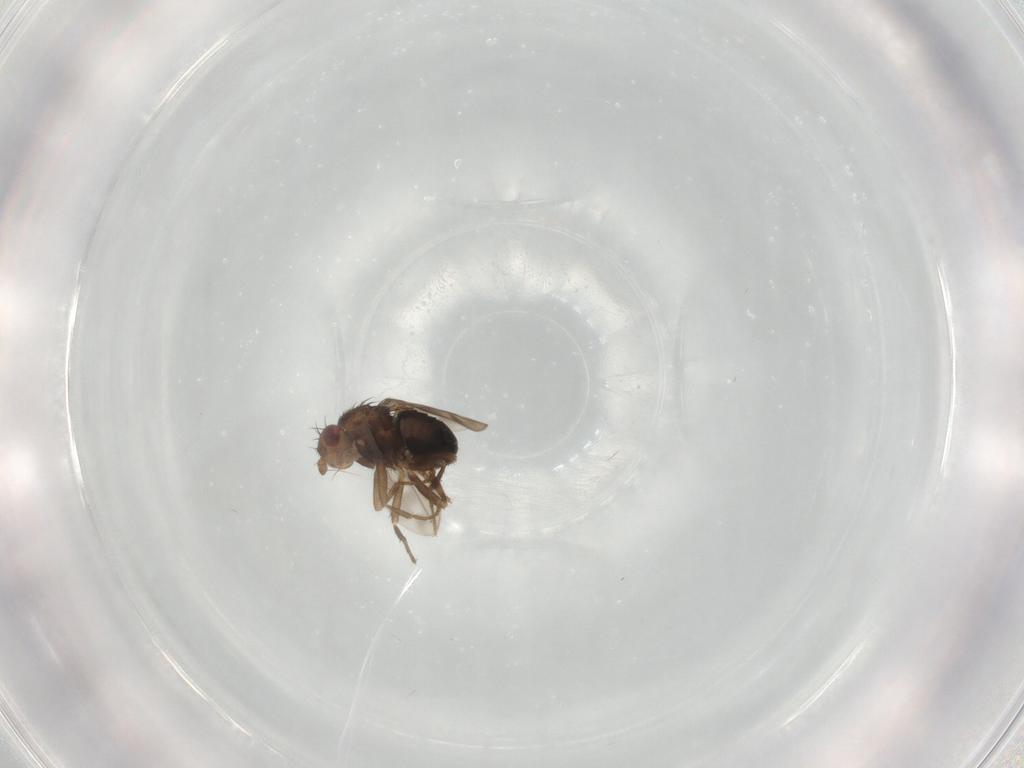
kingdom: Animalia
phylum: Arthropoda
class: Insecta
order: Diptera
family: Sphaeroceridae
